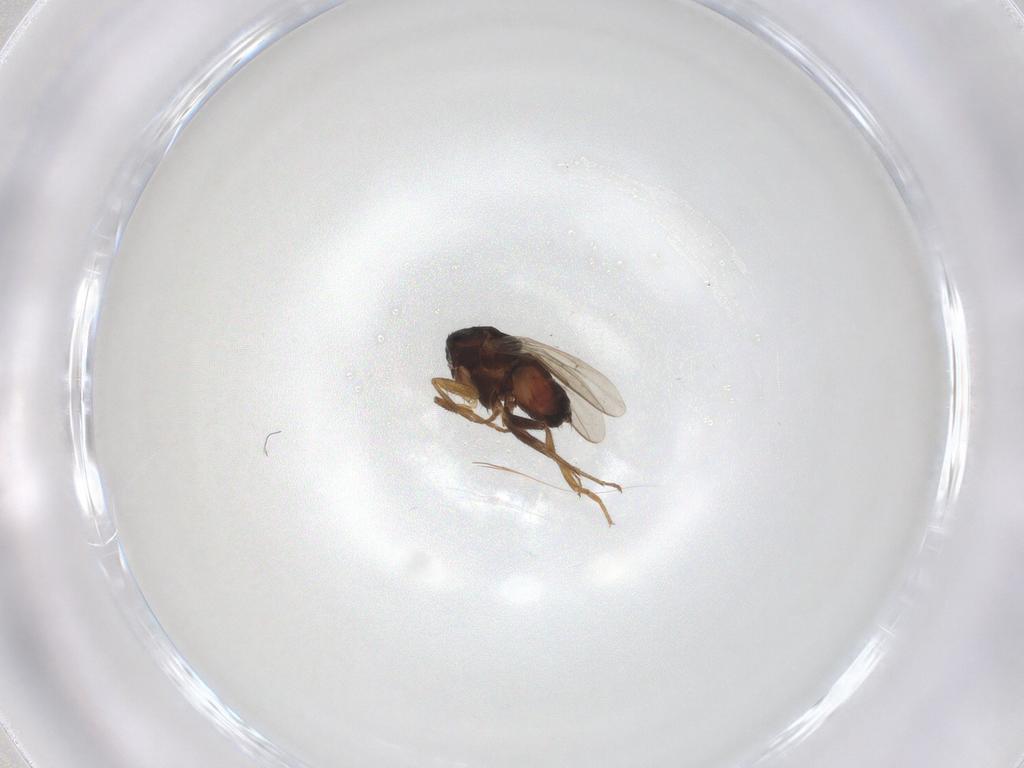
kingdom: Animalia
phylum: Arthropoda
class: Insecta
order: Diptera
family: Sphaeroceridae
